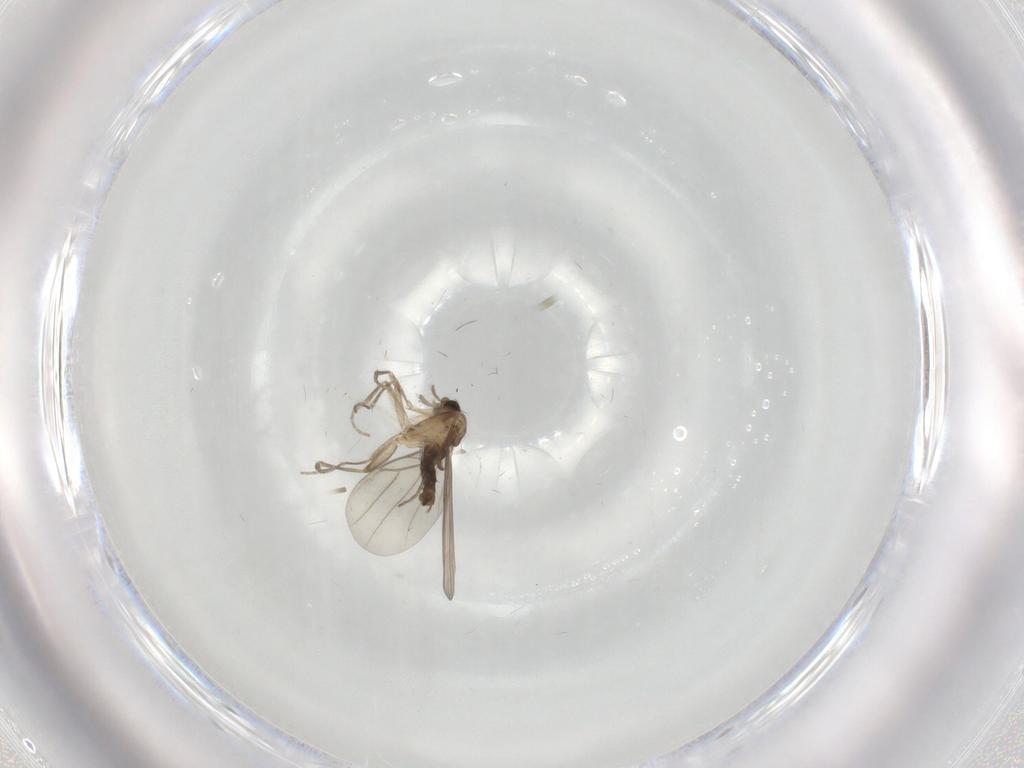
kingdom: Animalia
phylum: Arthropoda
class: Insecta
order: Diptera
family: Phoridae
